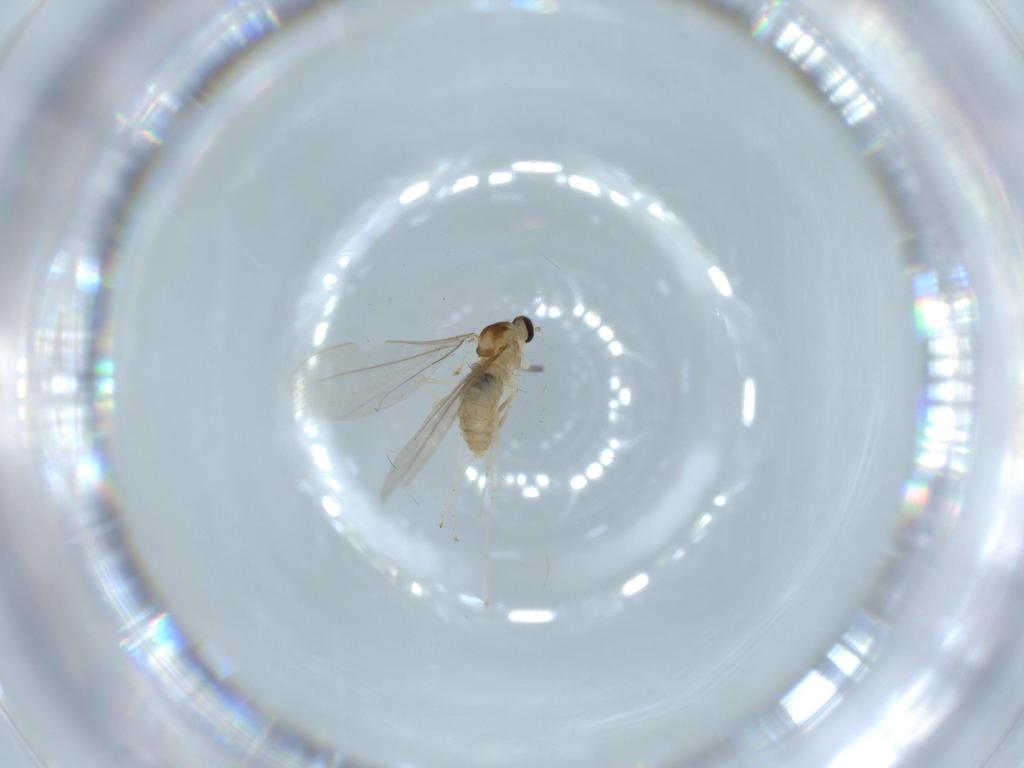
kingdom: Animalia
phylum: Arthropoda
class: Insecta
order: Diptera
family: Cecidomyiidae
